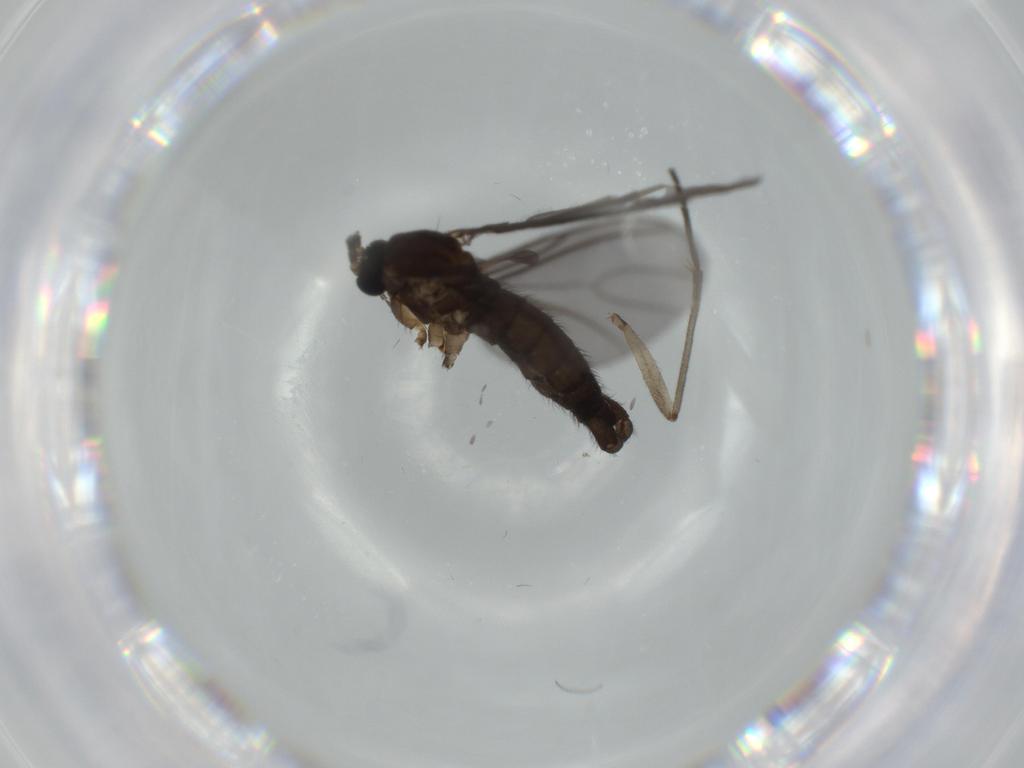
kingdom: Animalia
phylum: Arthropoda
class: Insecta
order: Diptera
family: Sciaridae
